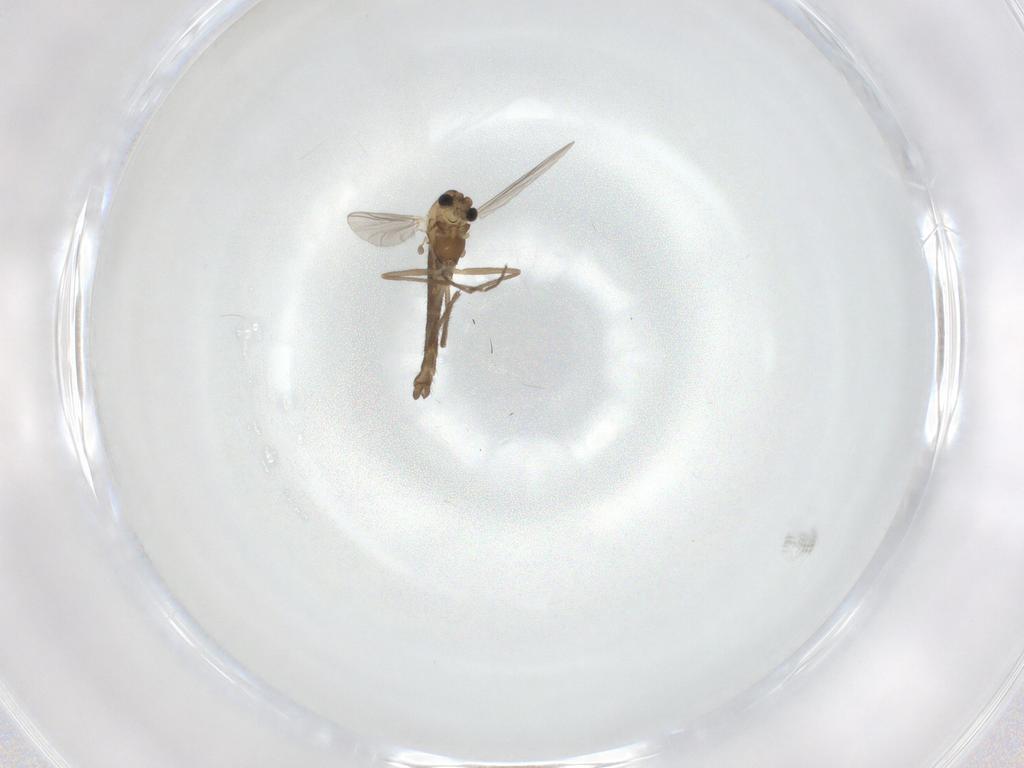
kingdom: Animalia
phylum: Arthropoda
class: Insecta
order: Diptera
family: Chironomidae
